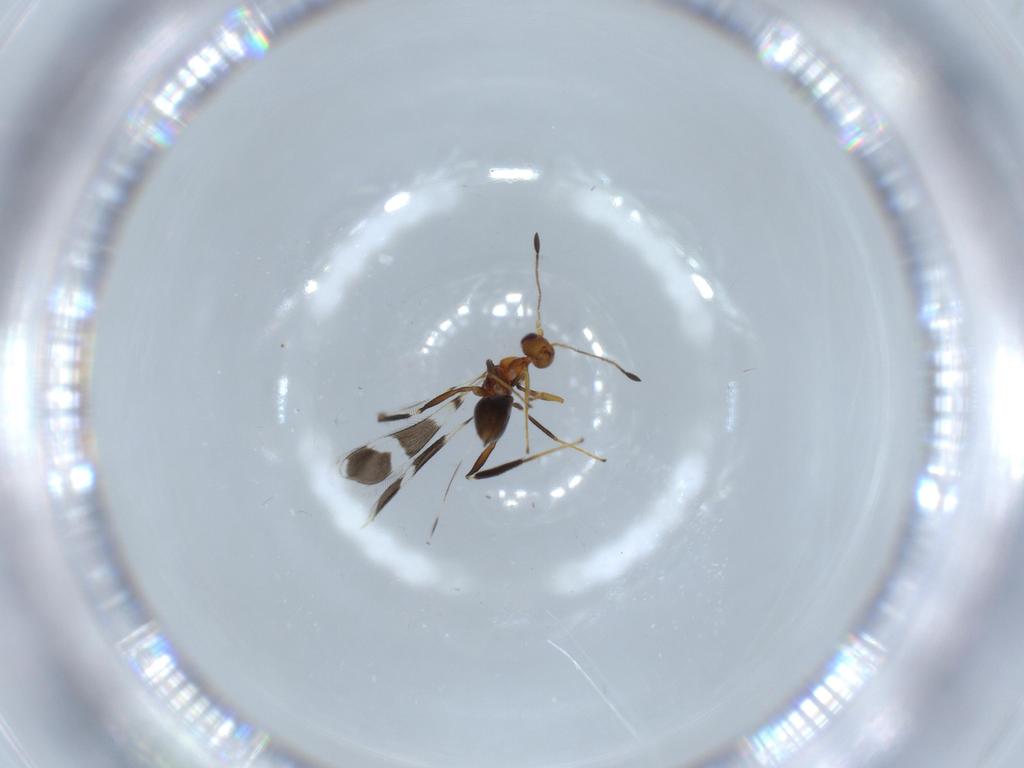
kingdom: Animalia
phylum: Arthropoda
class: Insecta
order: Hymenoptera
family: Mymaridae
